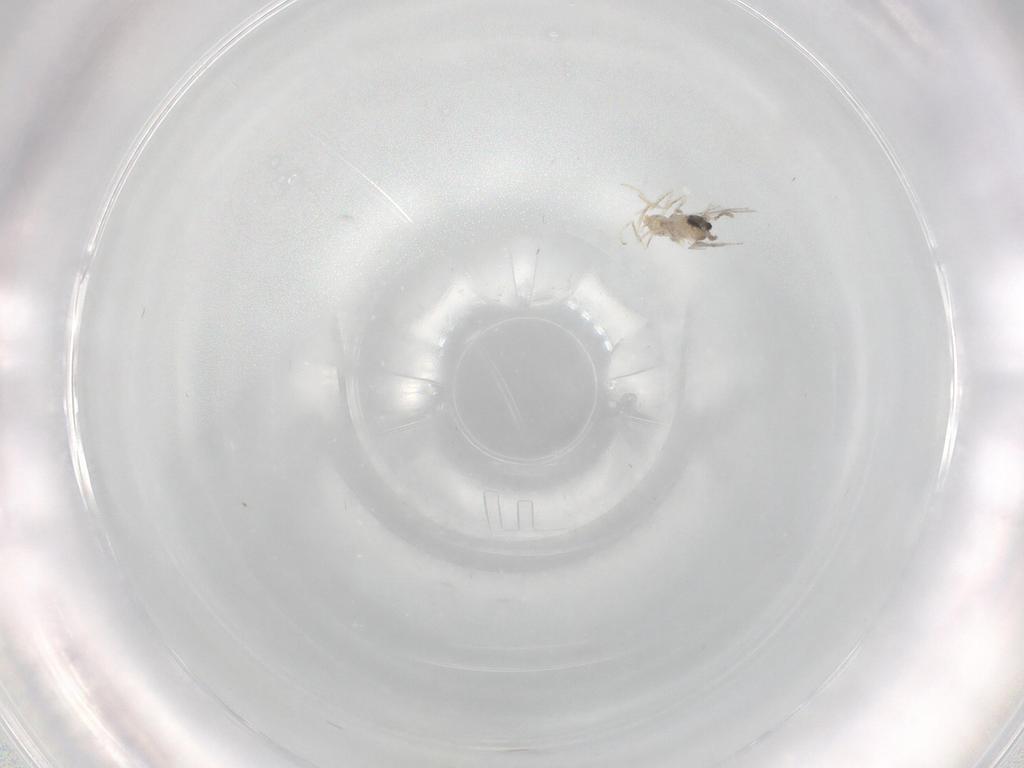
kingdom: Animalia
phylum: Arthropoda
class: Insecta
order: Diptera
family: Cecidomyiidae
